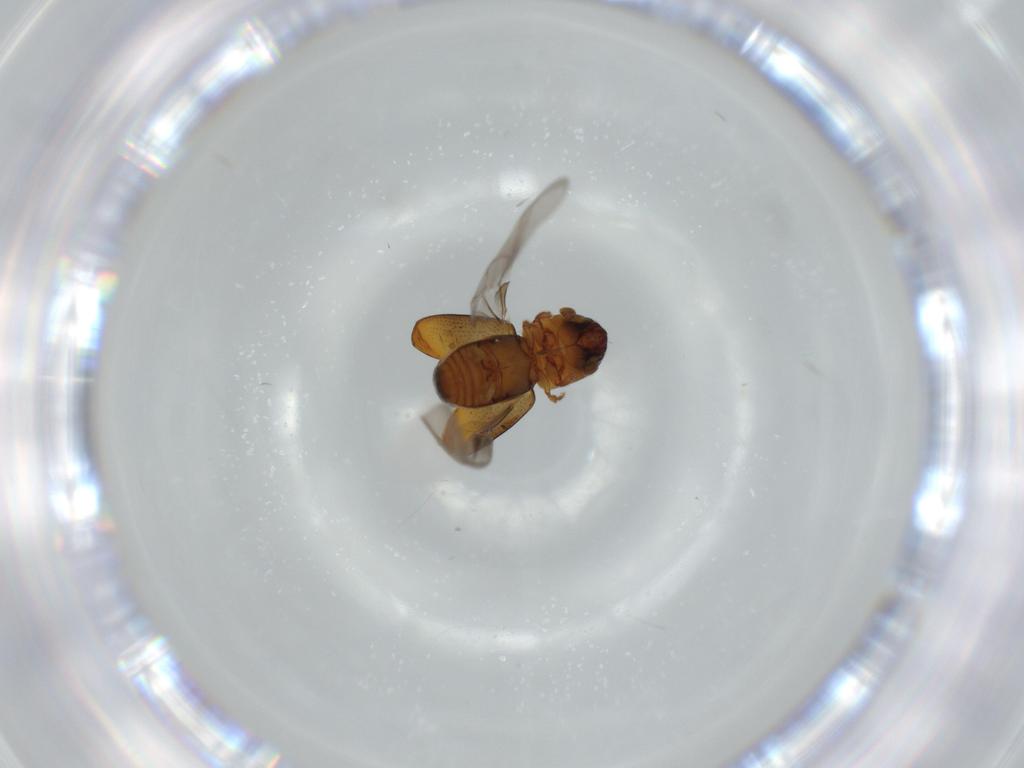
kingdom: Animalia
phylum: Arthropoda
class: Insecta
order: Coleoptera
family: Curculionidae
